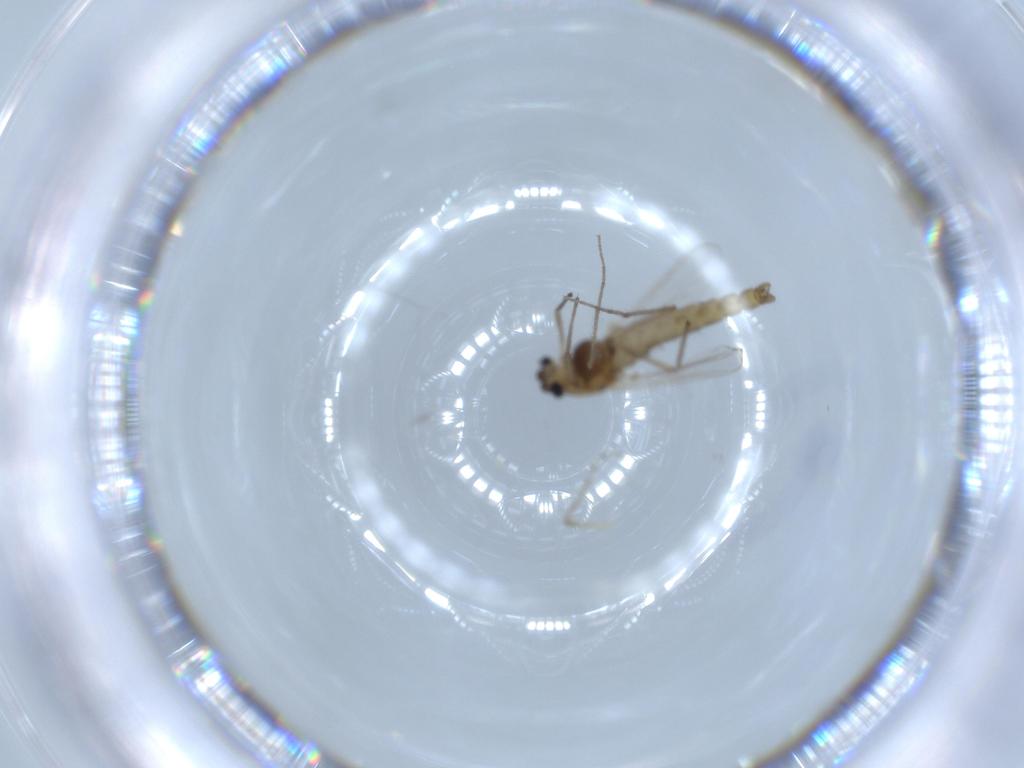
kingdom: Animalia
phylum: Arthropoda
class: Insecta
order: Diptera
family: Chironomidae
